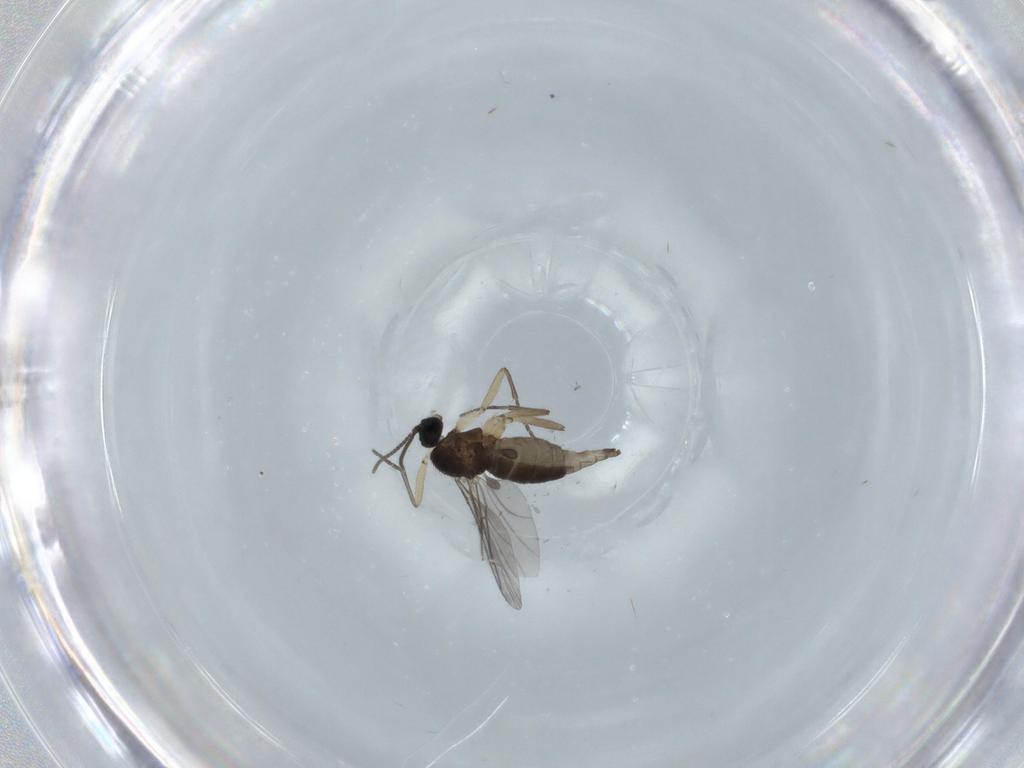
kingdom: Animalia
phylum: Arthropoda
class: Insecta
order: Diptera
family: Sciaridae
